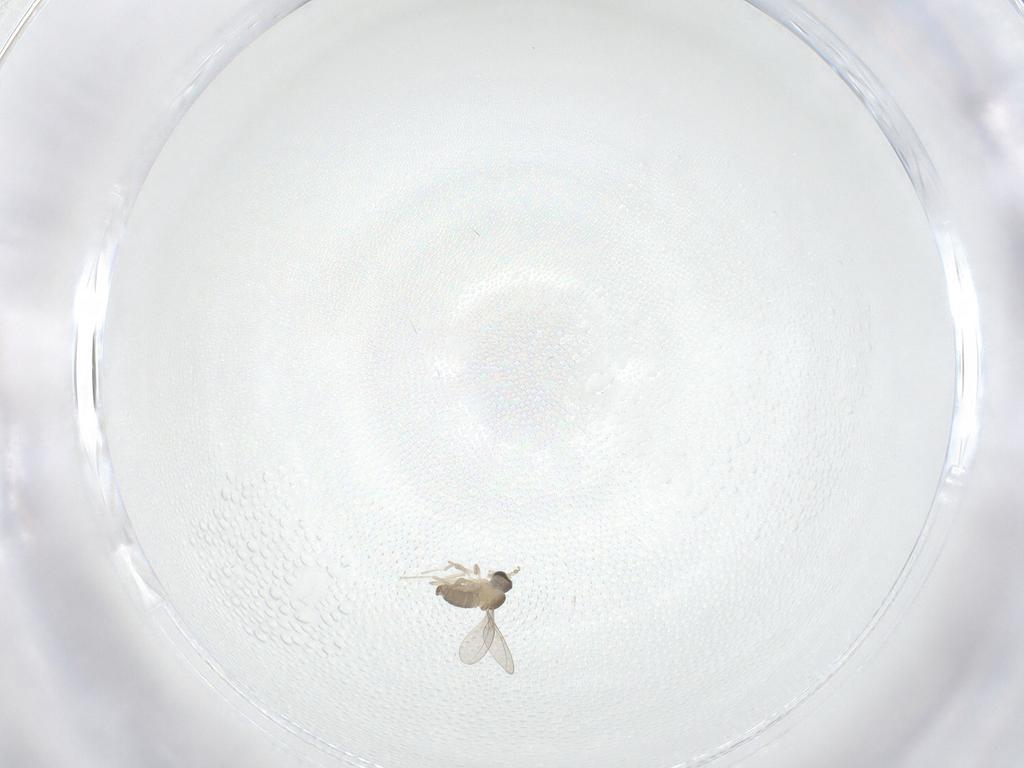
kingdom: Animalia
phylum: Arthropoda
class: Insecta
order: Diptera
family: Cecidomyiidae
